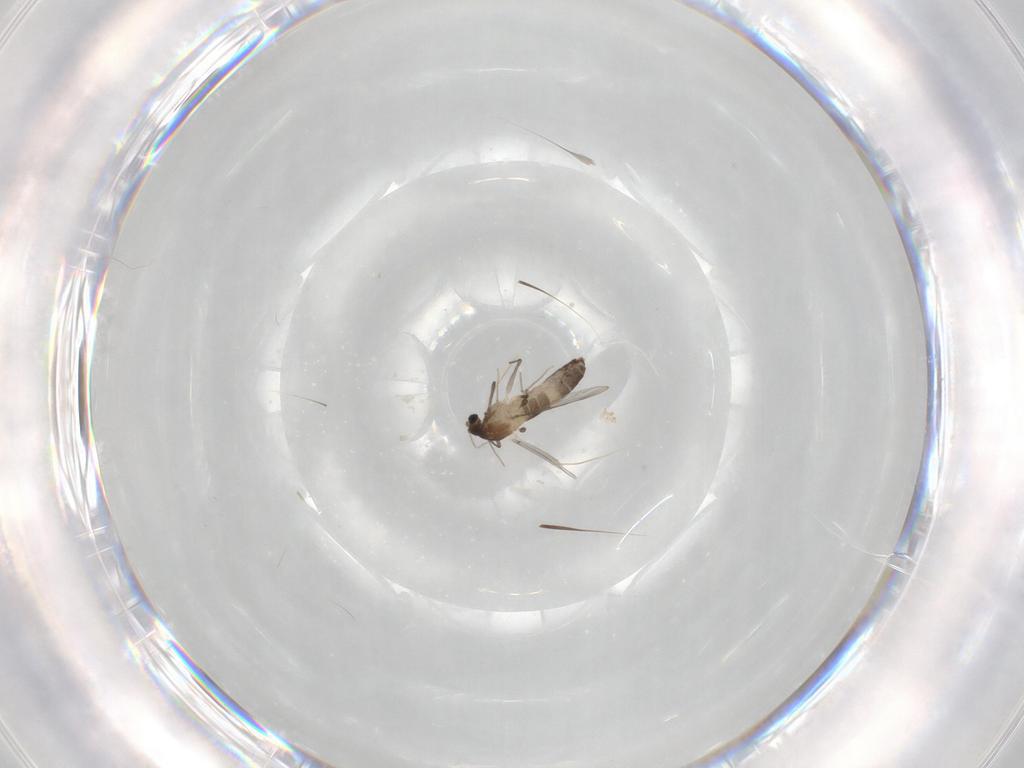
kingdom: Animalia
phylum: Arthropoda
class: Insecta
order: Diptera
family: Chironomidae
